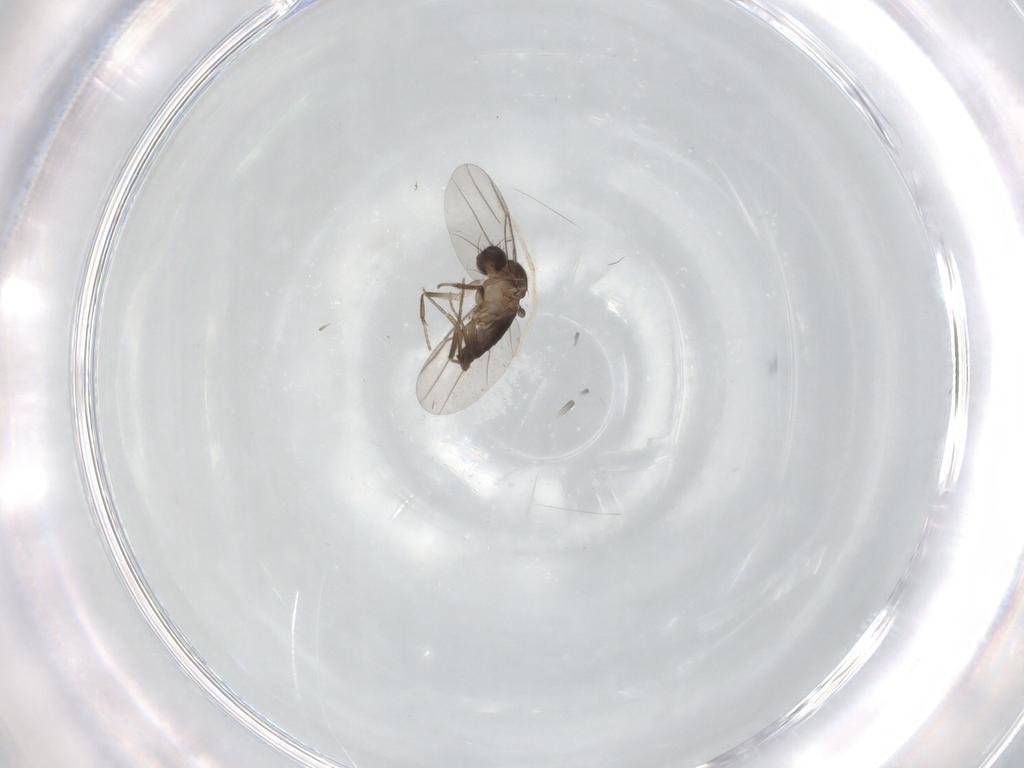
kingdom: Animalia
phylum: Arthropoda
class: Insecta
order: Diptera
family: Phoridae
